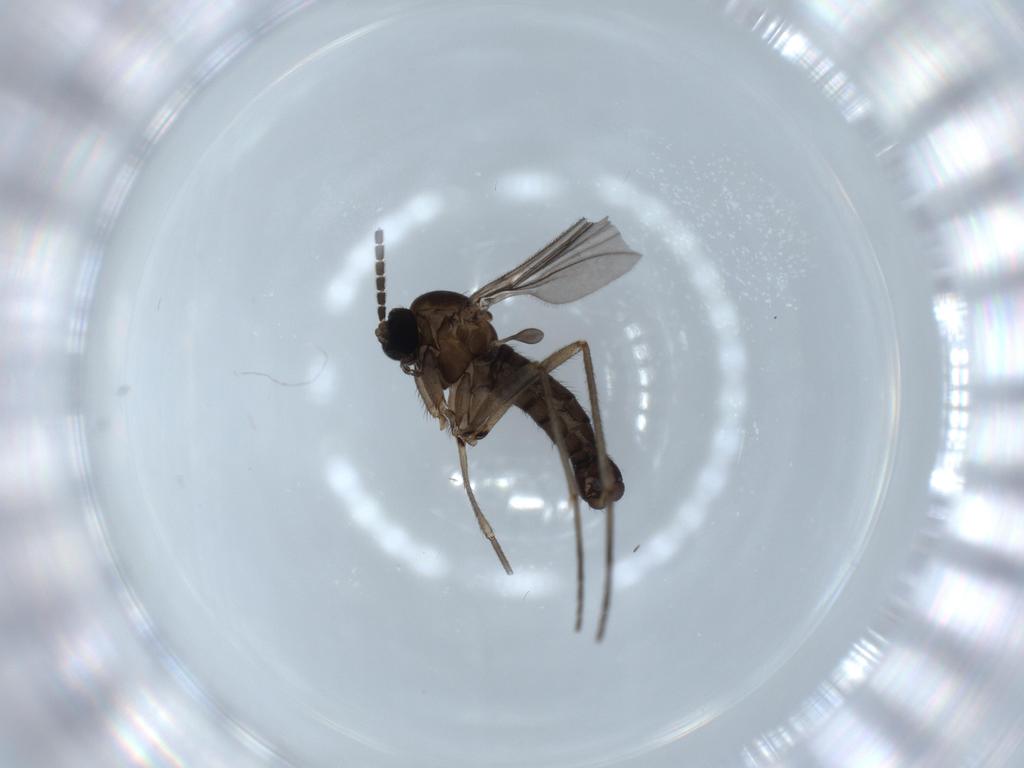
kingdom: Animalia
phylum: Arthropoda
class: Insecta
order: Diptera
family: Sciaridae
